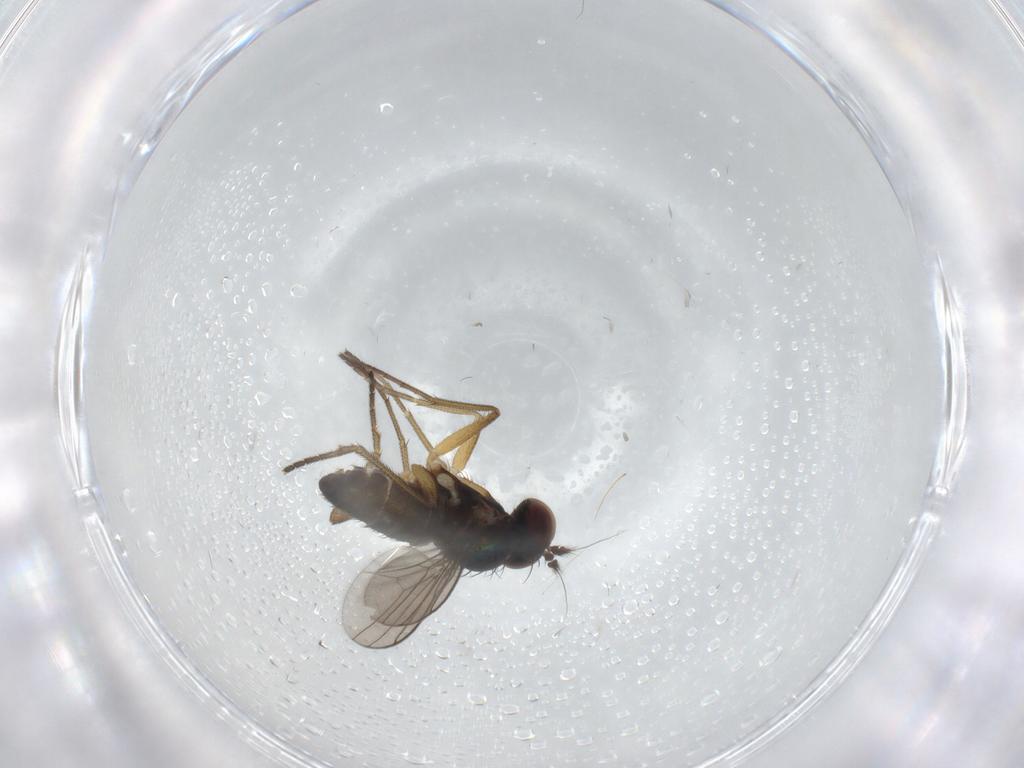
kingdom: Animalia
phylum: Arthropoda
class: Insecta
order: Diptera
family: Dolichopodidae
